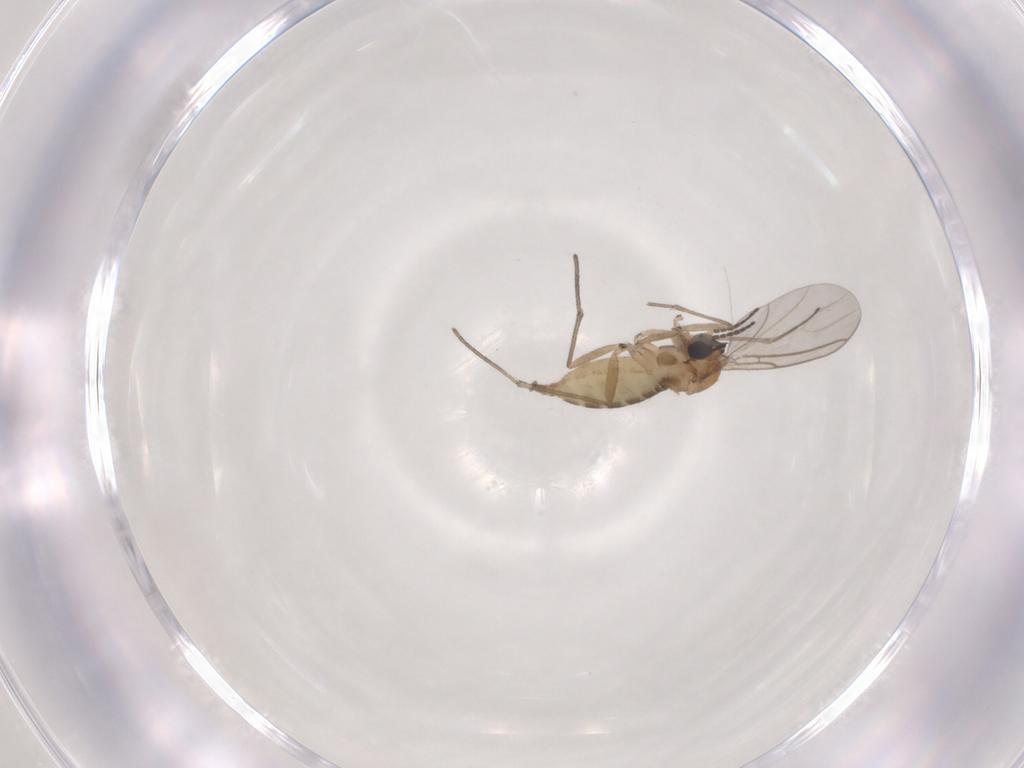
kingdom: Animalia
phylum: Arthropoda
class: Insecta
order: Diptera
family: Sciaridae
